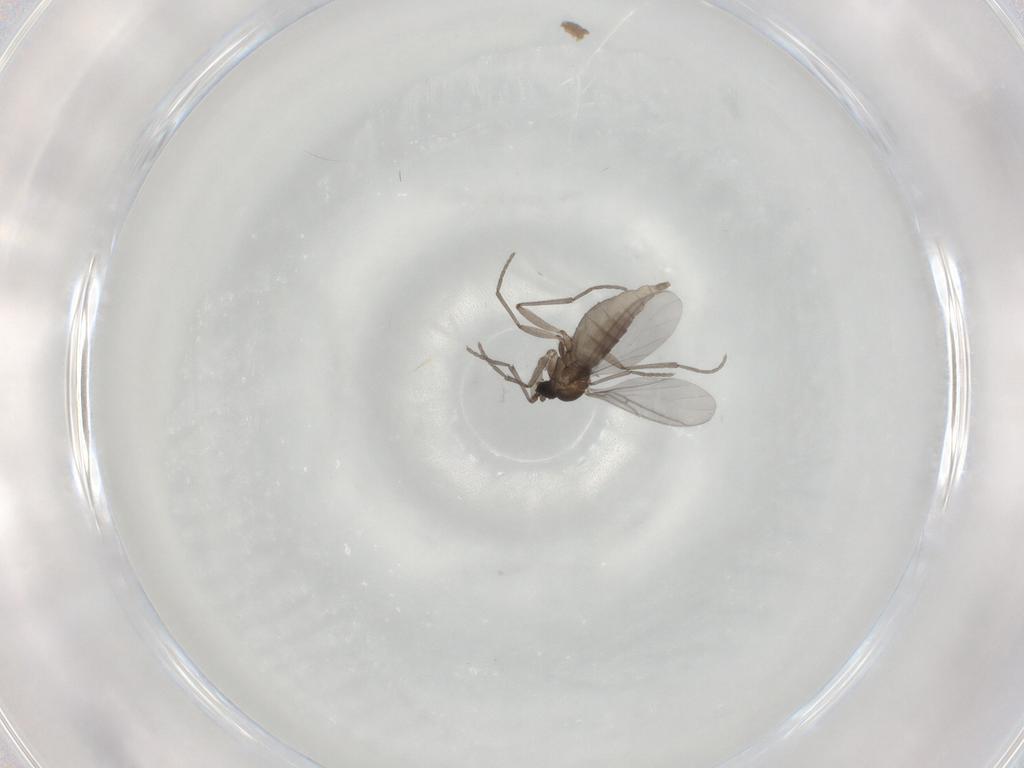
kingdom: Animalia
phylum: Arthropoda
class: Insecta
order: Diptera
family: Sciaridae
